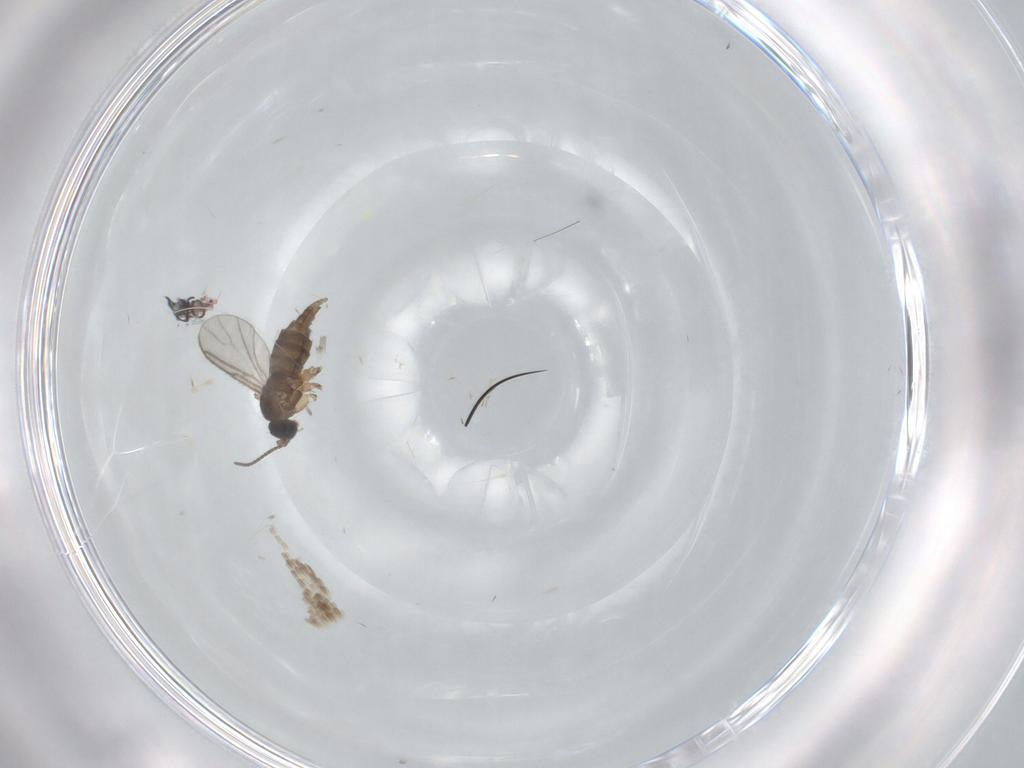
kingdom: Animalia
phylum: Arthropoda
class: Insecta
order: Diptera
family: Sciaridae
